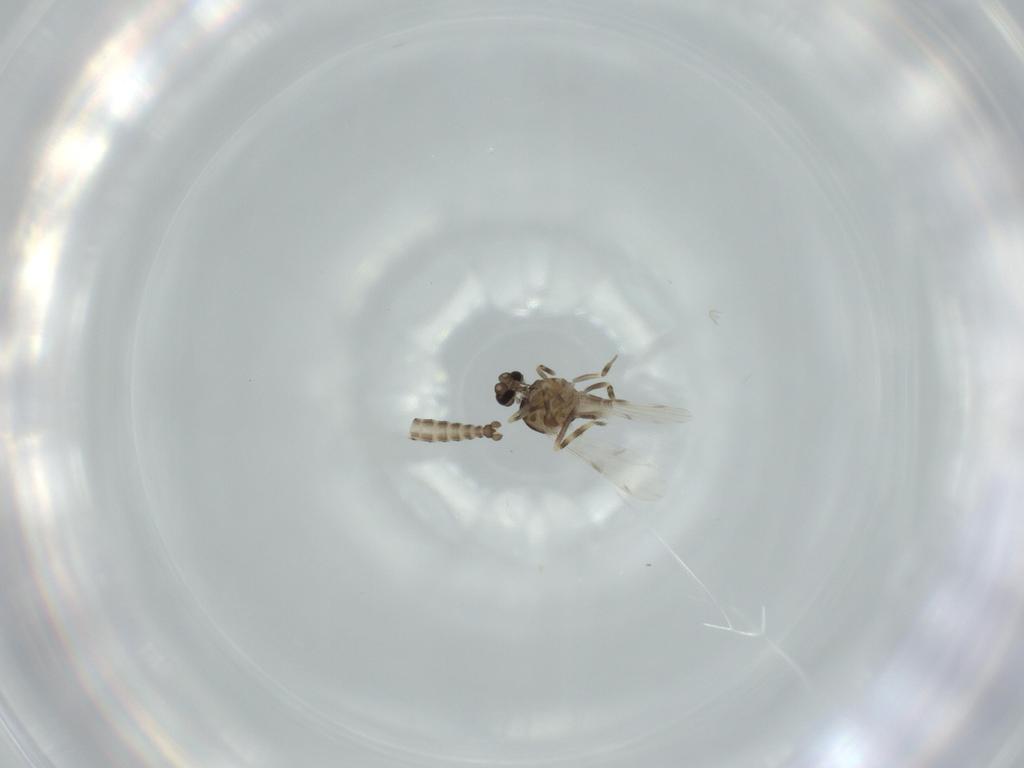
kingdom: Animalia
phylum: Arthropoda
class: Insecta
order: Diptera
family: Ceratopogonidae
